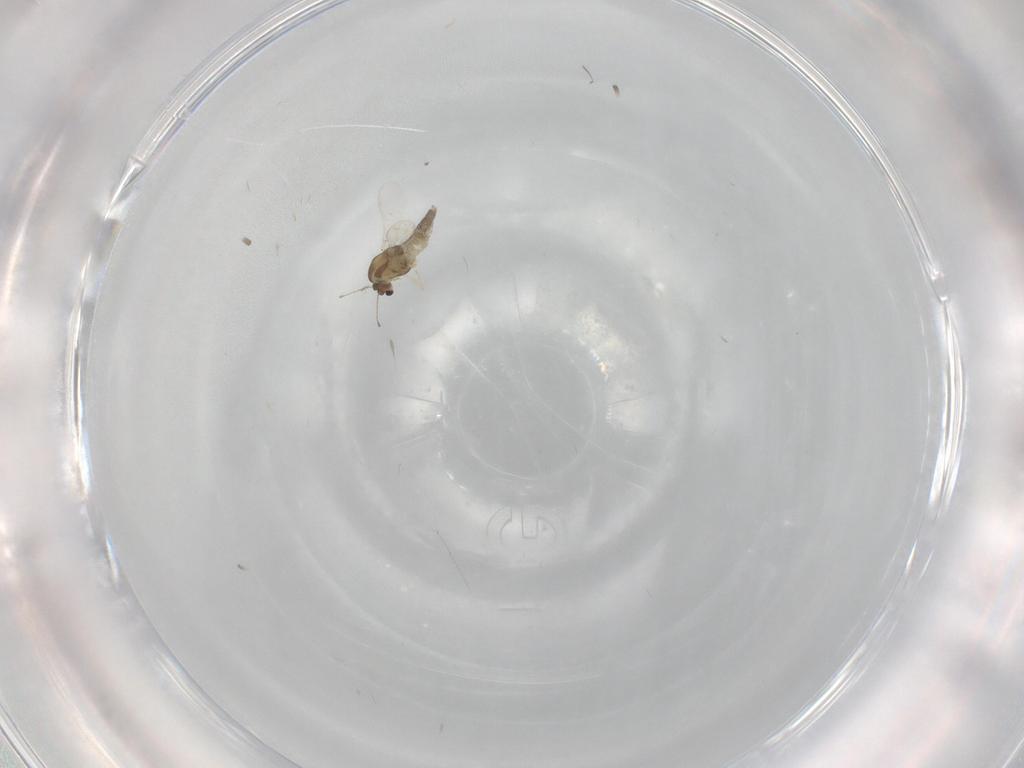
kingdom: Animalia
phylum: Arthropoda
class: Insecta
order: Diptera
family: Chironomidae
